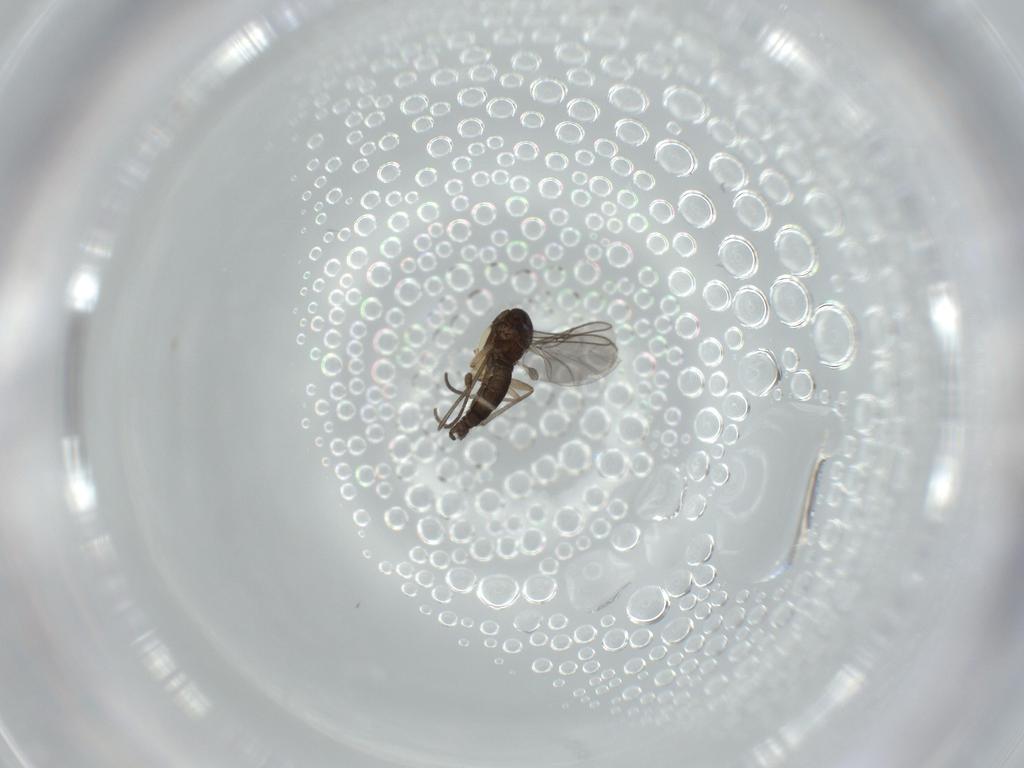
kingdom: Animalia
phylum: Arthropoda
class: Insecta
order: Diptera
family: Sciaridae
